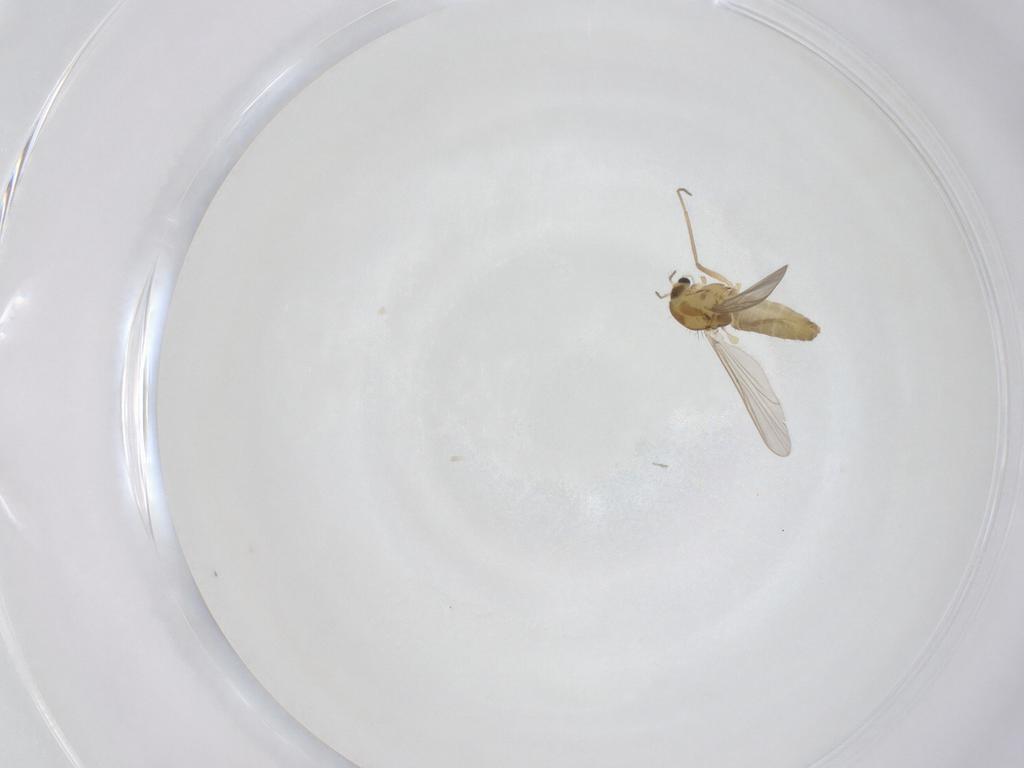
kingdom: Animalia
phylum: Arthropoda
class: Insecta
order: Diptera
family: Chironomidae
